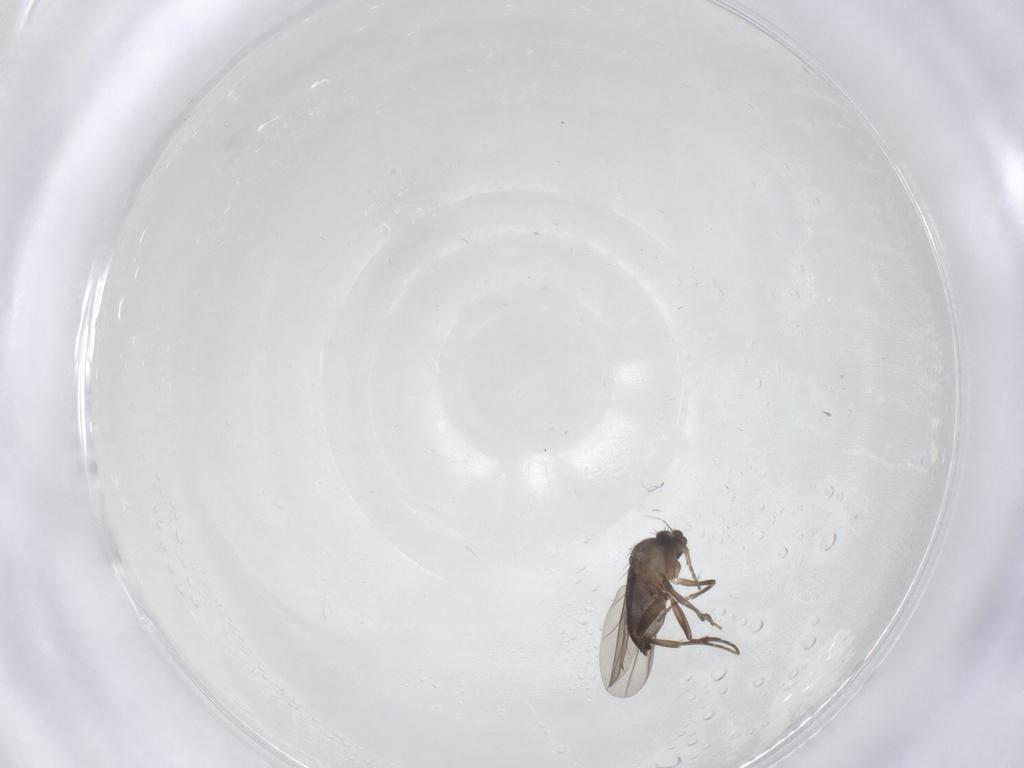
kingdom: Animalia
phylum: Arthropoda
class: Insecta
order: Diptera
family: Phoridae
